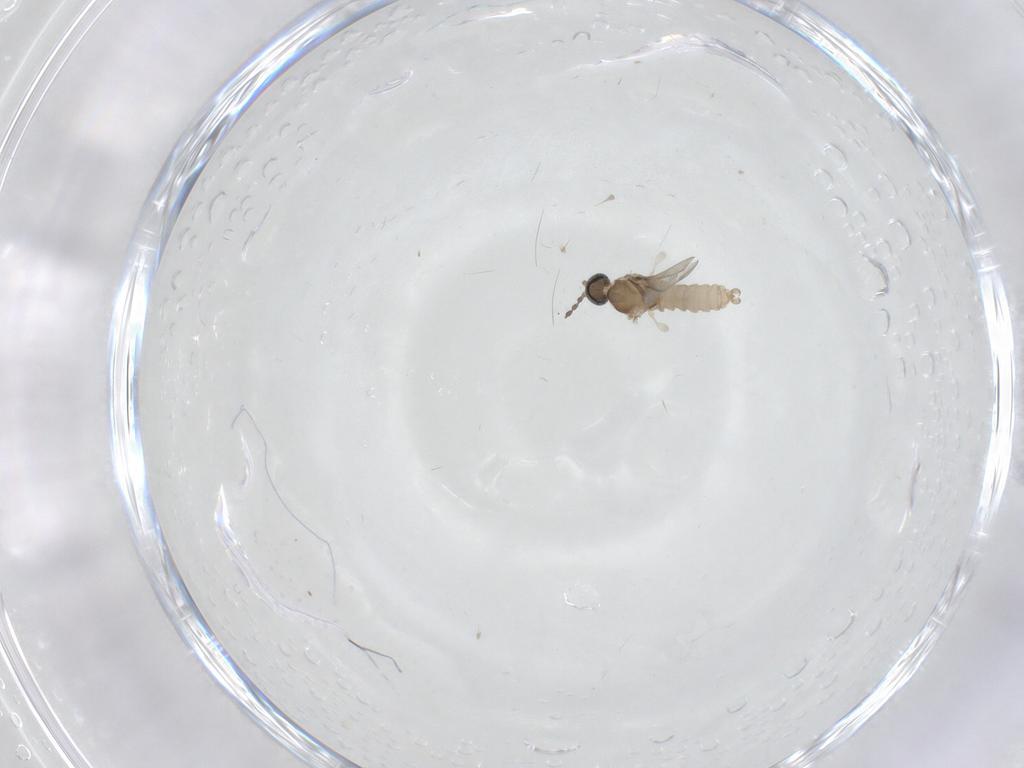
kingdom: Animalia
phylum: Arthropoda
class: Insecta
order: Diptera
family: Cecidomyiidae
